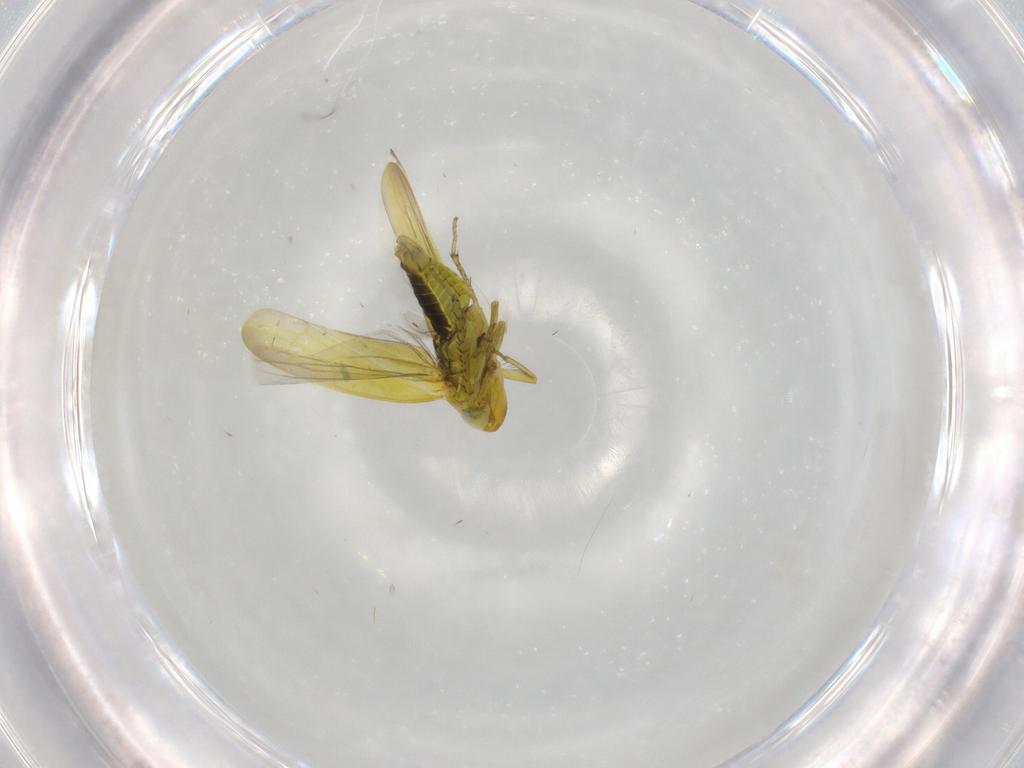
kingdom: Animalia
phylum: Arthropoda
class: Insecta
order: Hemiptera
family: Cicadellidae
